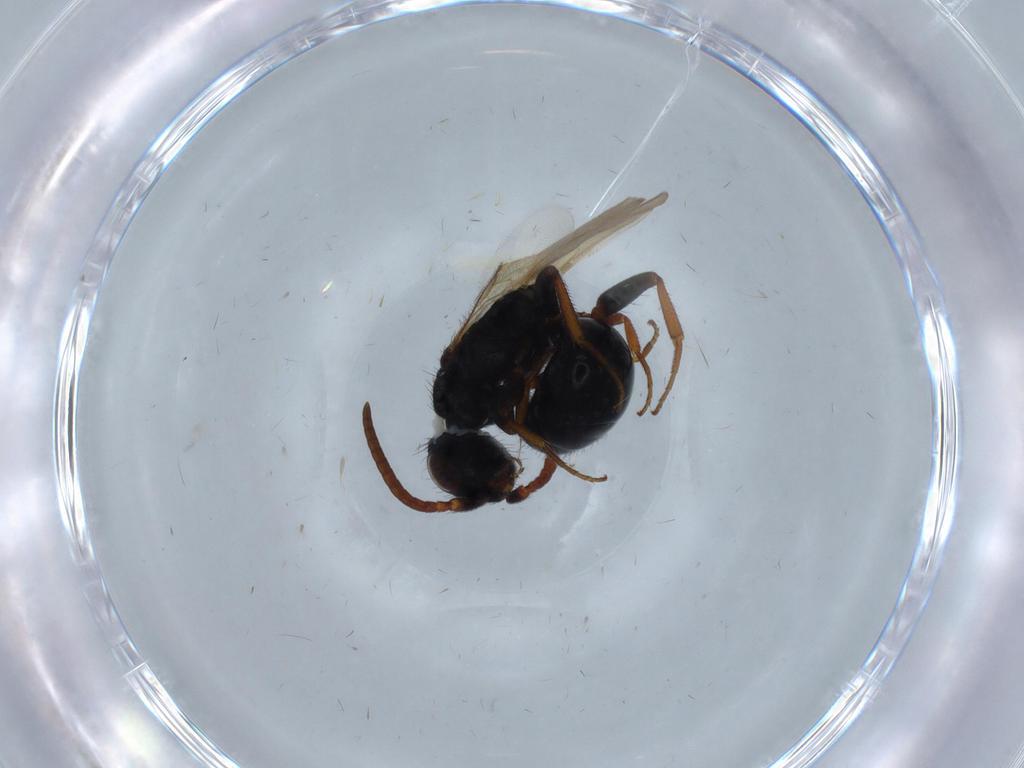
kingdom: Animalia
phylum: Arthropoda
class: Insecta
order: Hymenoptera
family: Bethylidae
